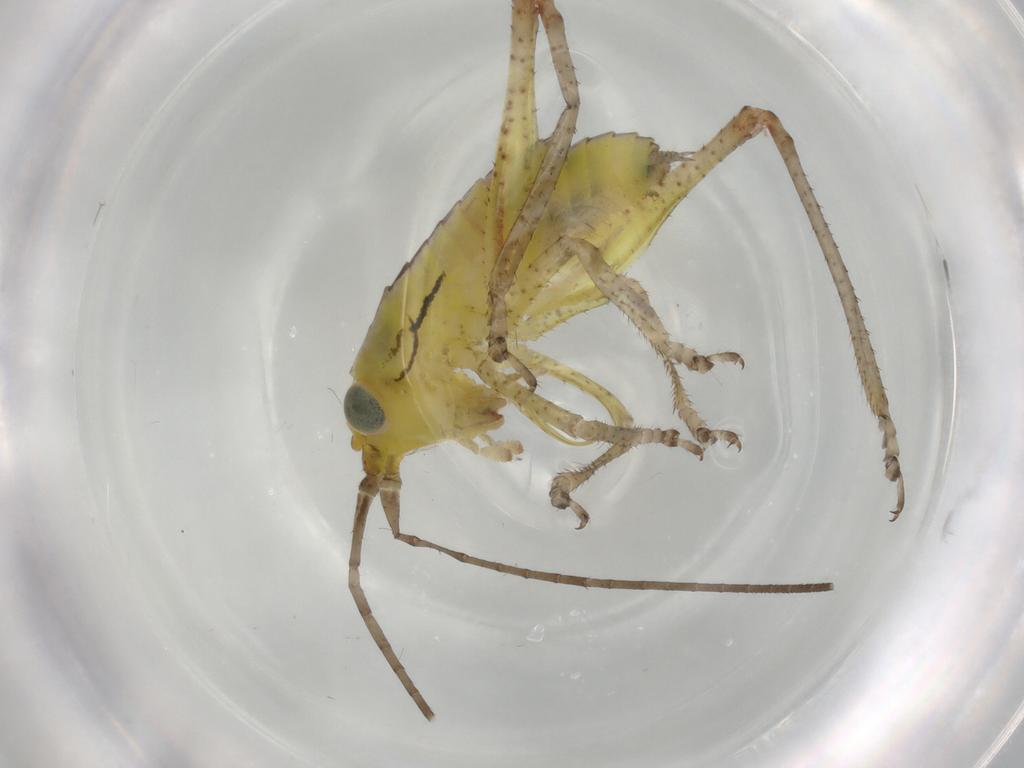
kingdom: Animalia
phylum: Arthropoda
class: Insecta
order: Orthoptera
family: Tettigoniidae
